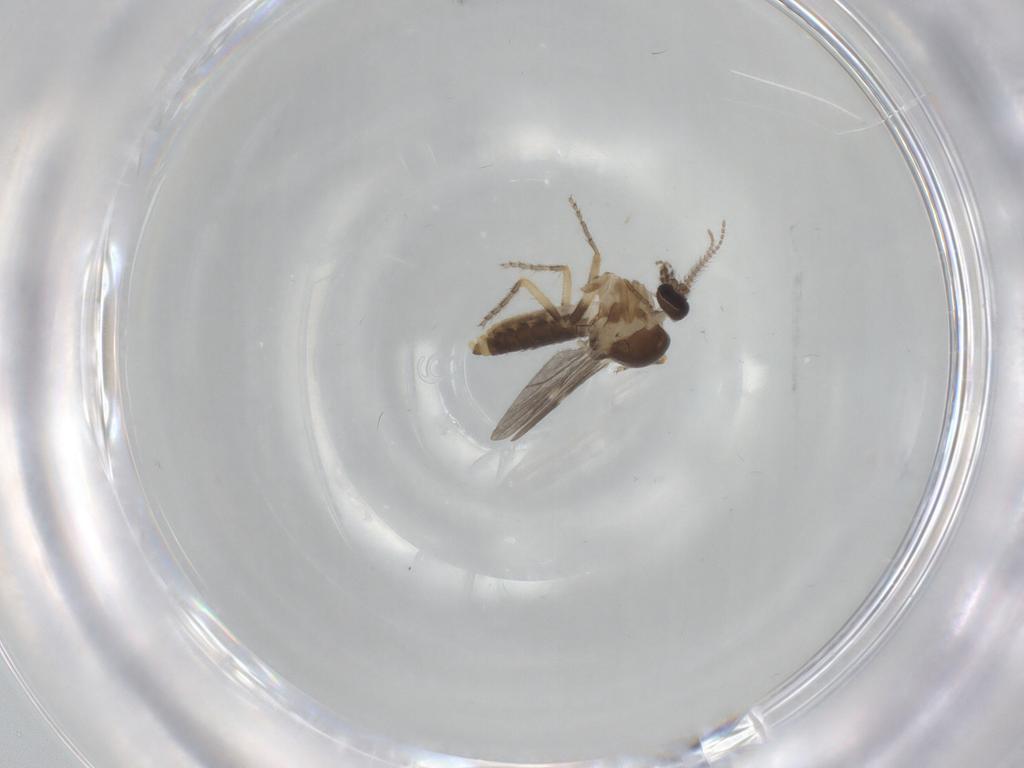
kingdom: Animalia
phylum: Arthropoda
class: Insecta
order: Diptera
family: Ceratopogonidae
